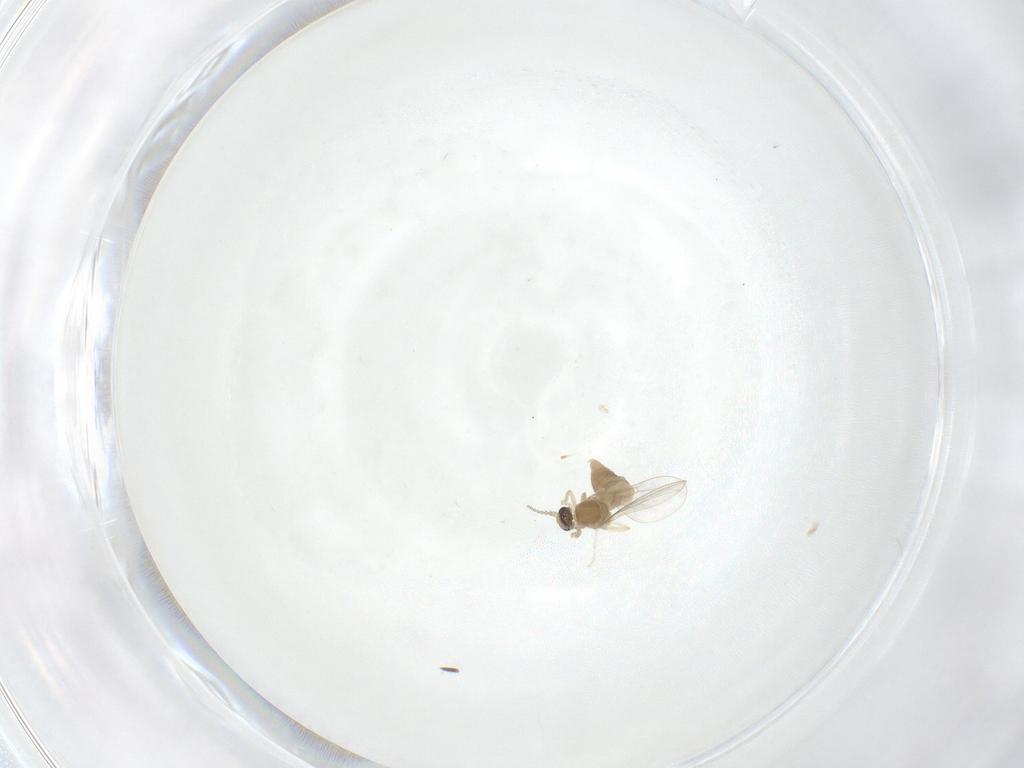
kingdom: Animalia
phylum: Arthropoda
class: Insecta
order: Diptera
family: Cecidomyiidae
